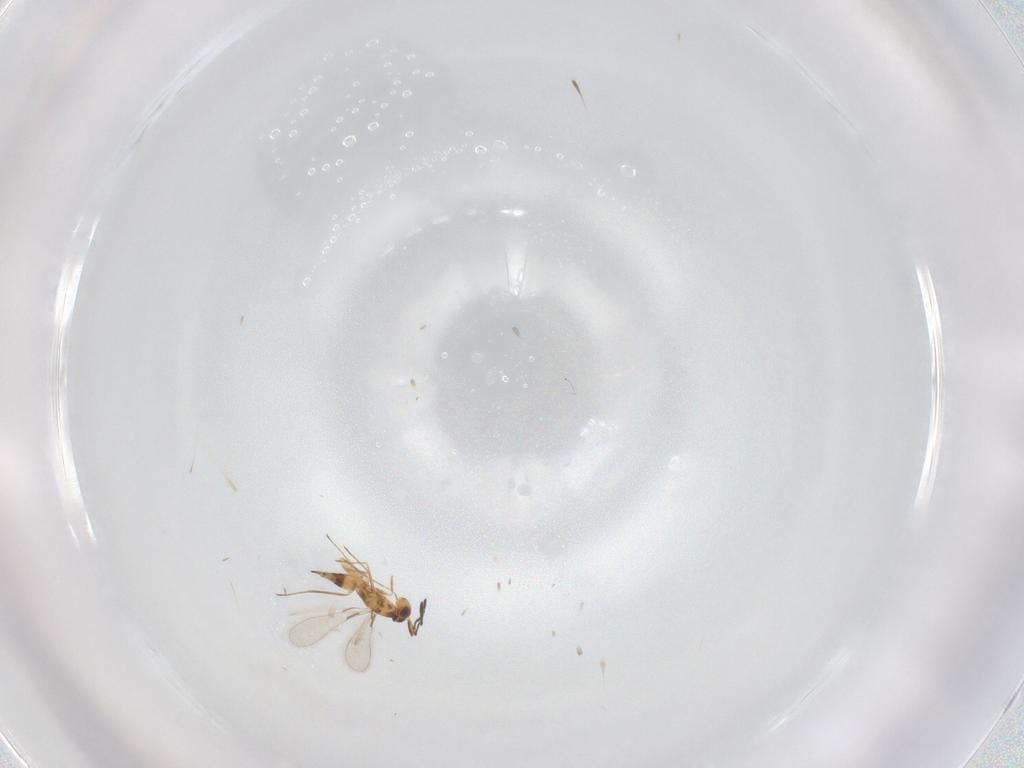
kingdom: Animalia
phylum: Arthropoda
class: Insecta
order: Hymenoptera
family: Mymaridae
